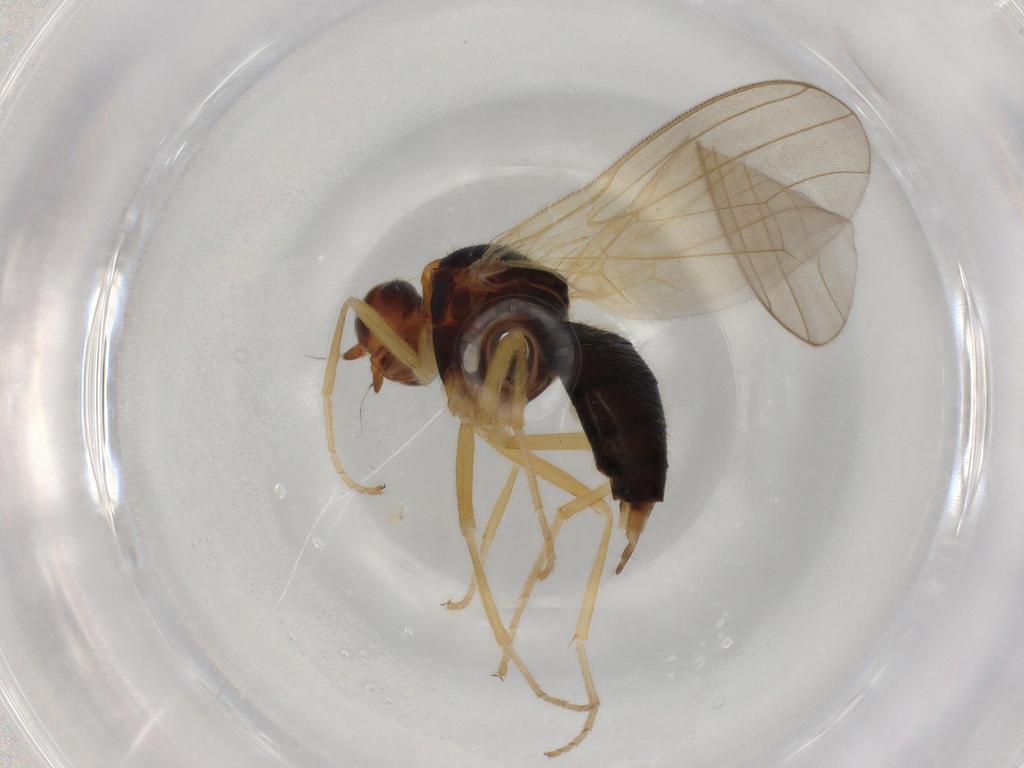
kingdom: Animalia
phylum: Arthropoda
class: Insecta
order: Diptera
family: Psilidae
